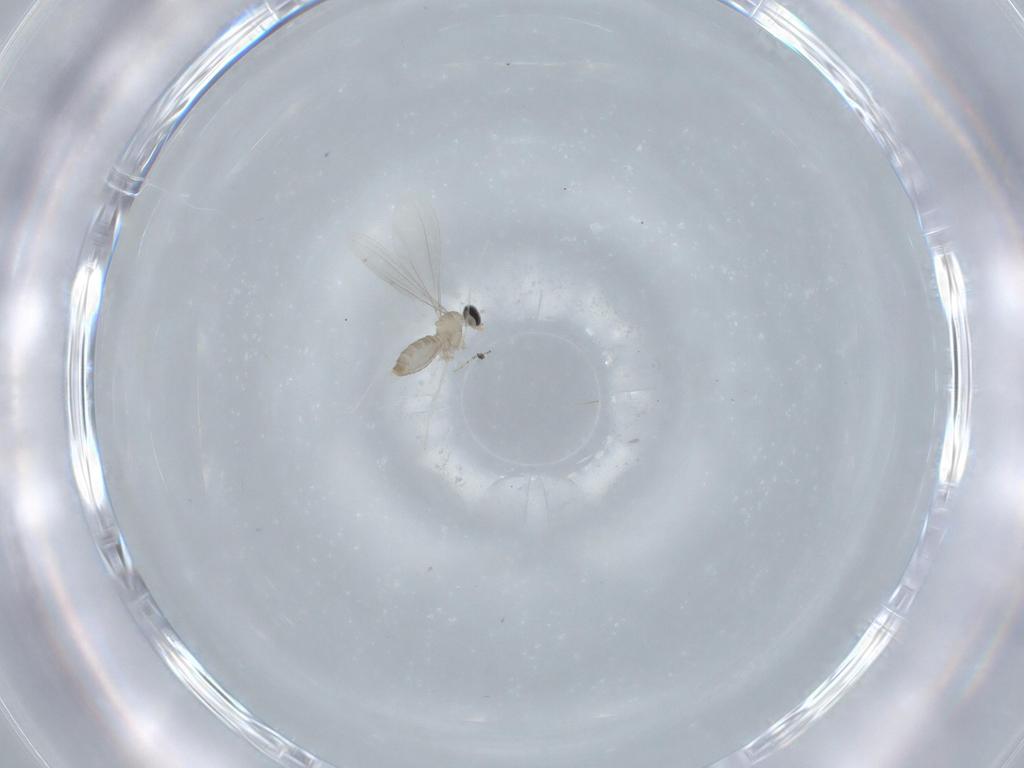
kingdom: Animalia
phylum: Arthropoda
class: Insecta
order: Diptera
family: Cecidomyiidae
